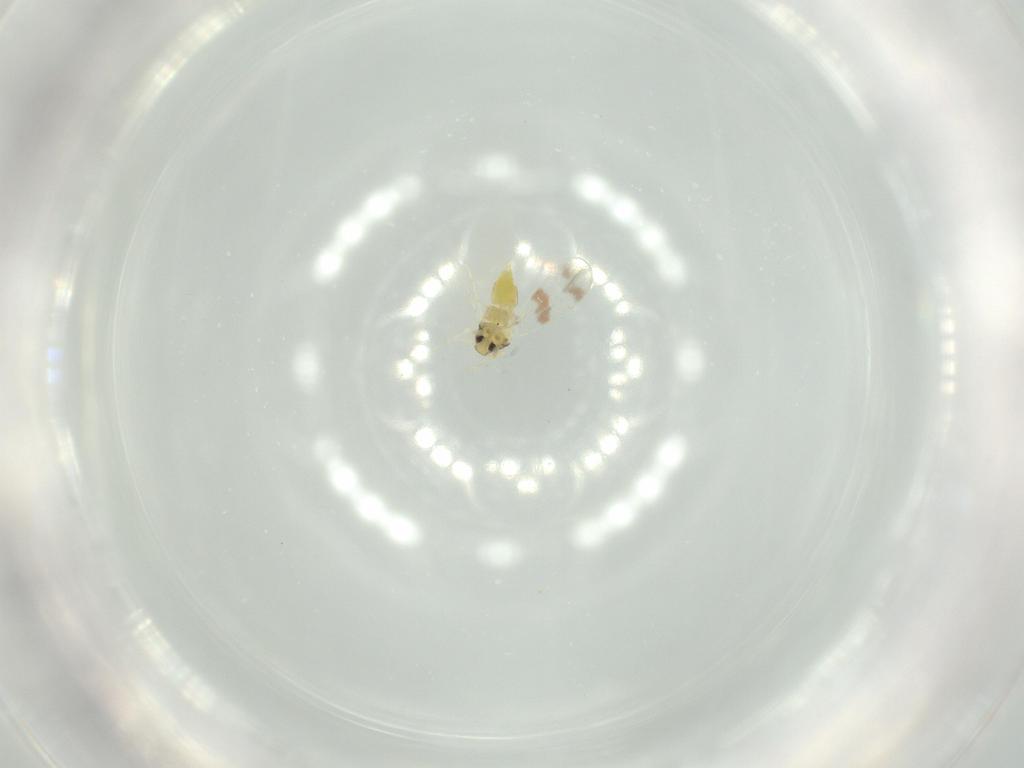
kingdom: Animalia
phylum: Arthropoda
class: Insecta
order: Hemiptera
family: Aleyrodidae
